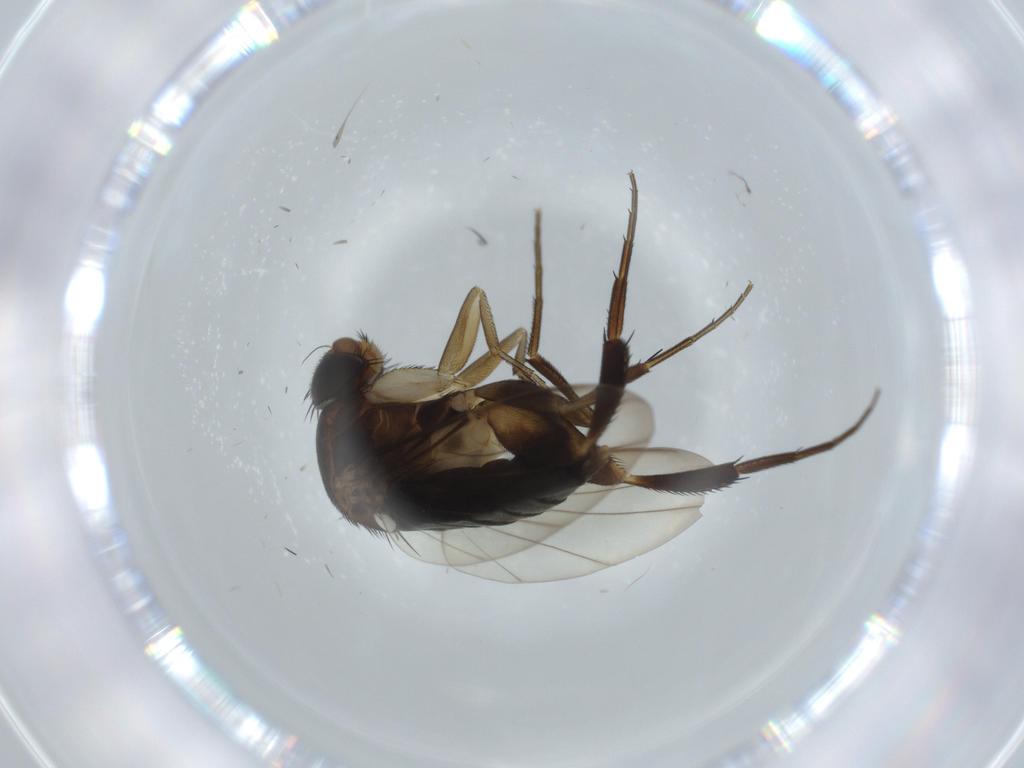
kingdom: Animalia
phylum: Arthropoda
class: Insecta
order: Diptera
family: Phoridae
